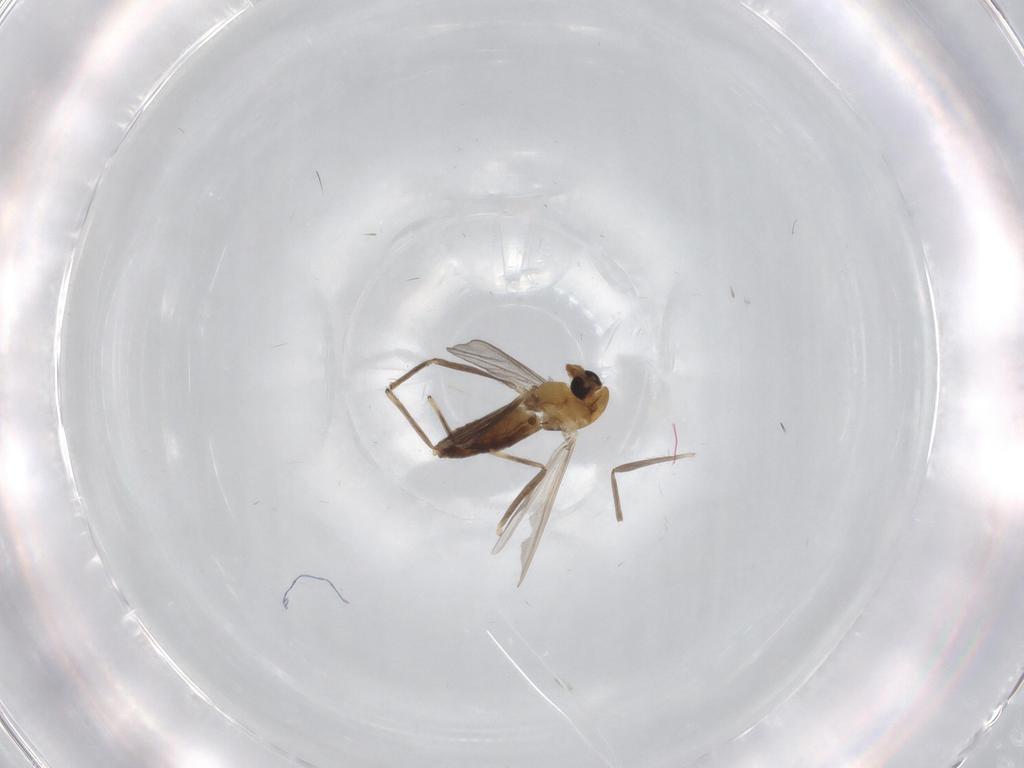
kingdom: Animalia
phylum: Arthropoda
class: Insecta
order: Diptera
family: Chironomidae
